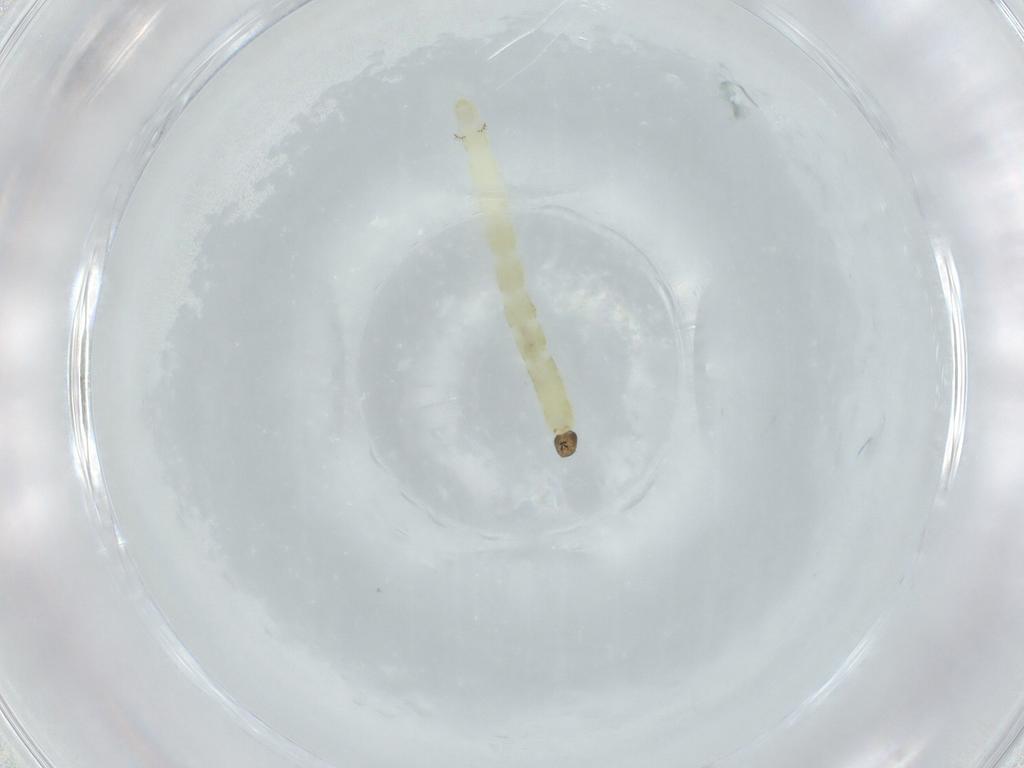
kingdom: Animalia
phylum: Arthropoda
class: Insecta
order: Diptera
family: Chironomidae
